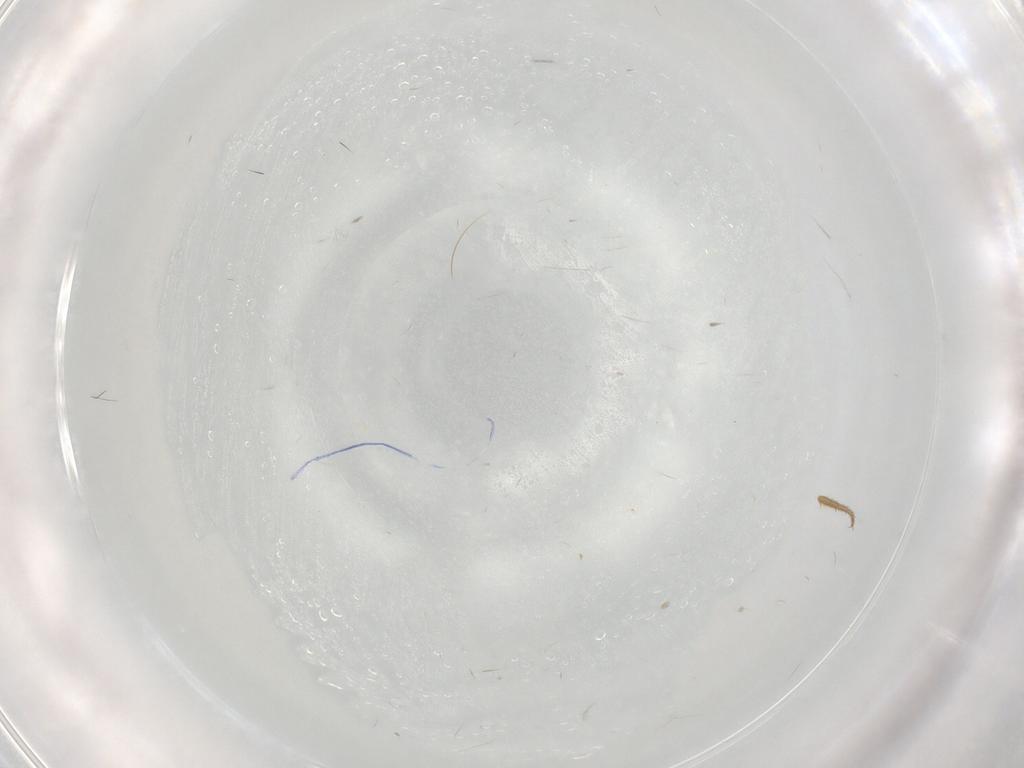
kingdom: Animalia
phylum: Arthropoda
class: Insecta
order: Diptera
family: Drosophilidae
